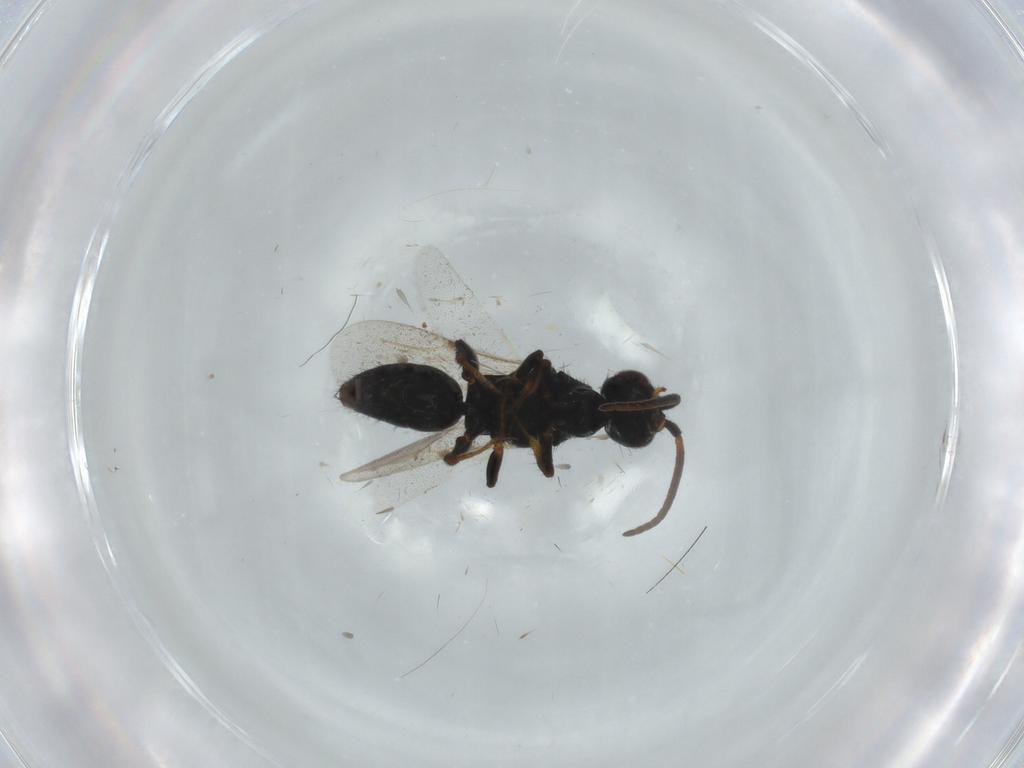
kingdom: Animalia
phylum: Arthropoda
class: Insecta
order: Hymenoptera
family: Bethylidae
